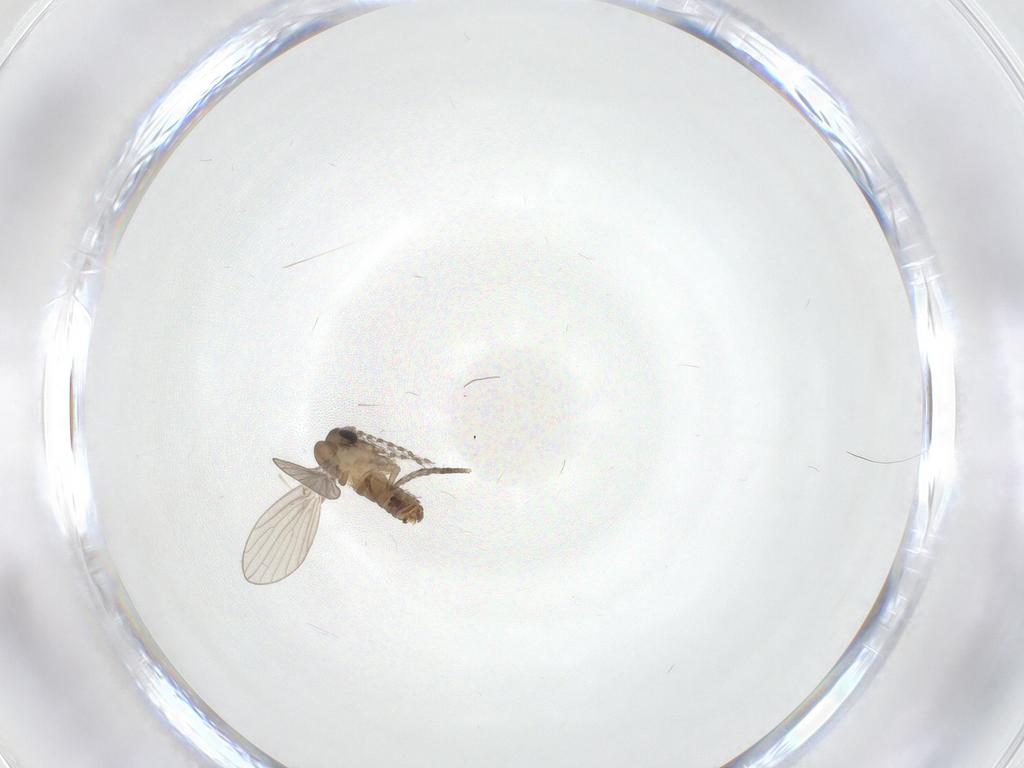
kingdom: Animalia
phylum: Arthropoda
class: Insecta
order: Diptera
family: Psychodidae
